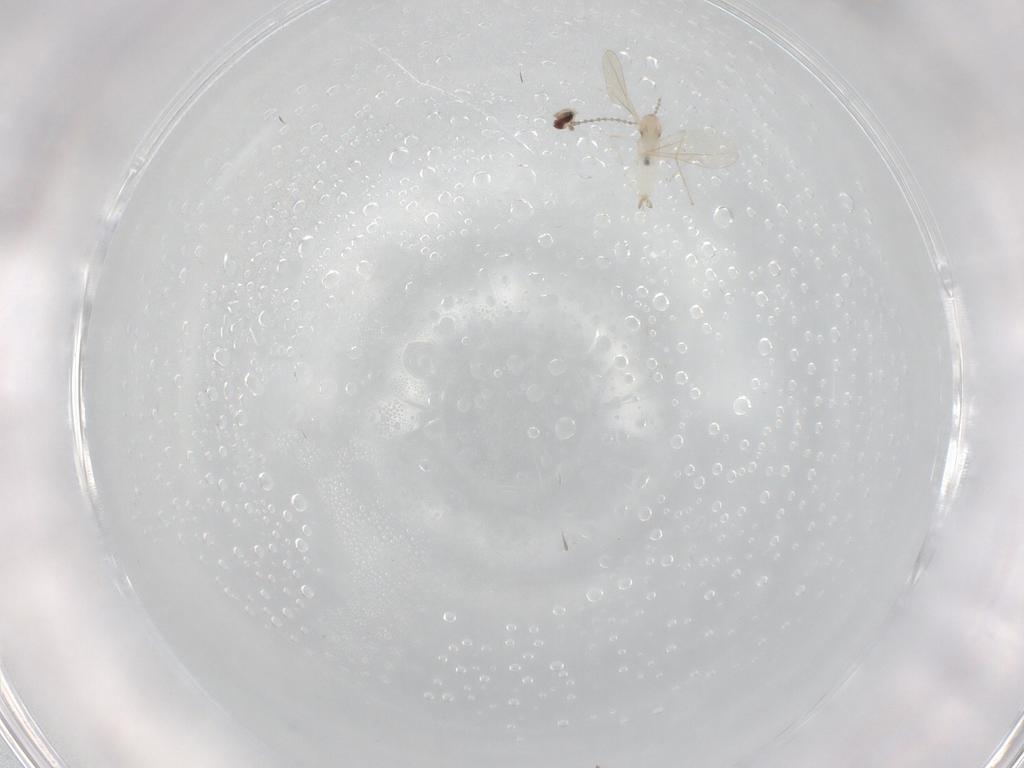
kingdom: Animalia
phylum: Arthropoda
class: Insecta
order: Diptera
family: Cecidomyiidae
